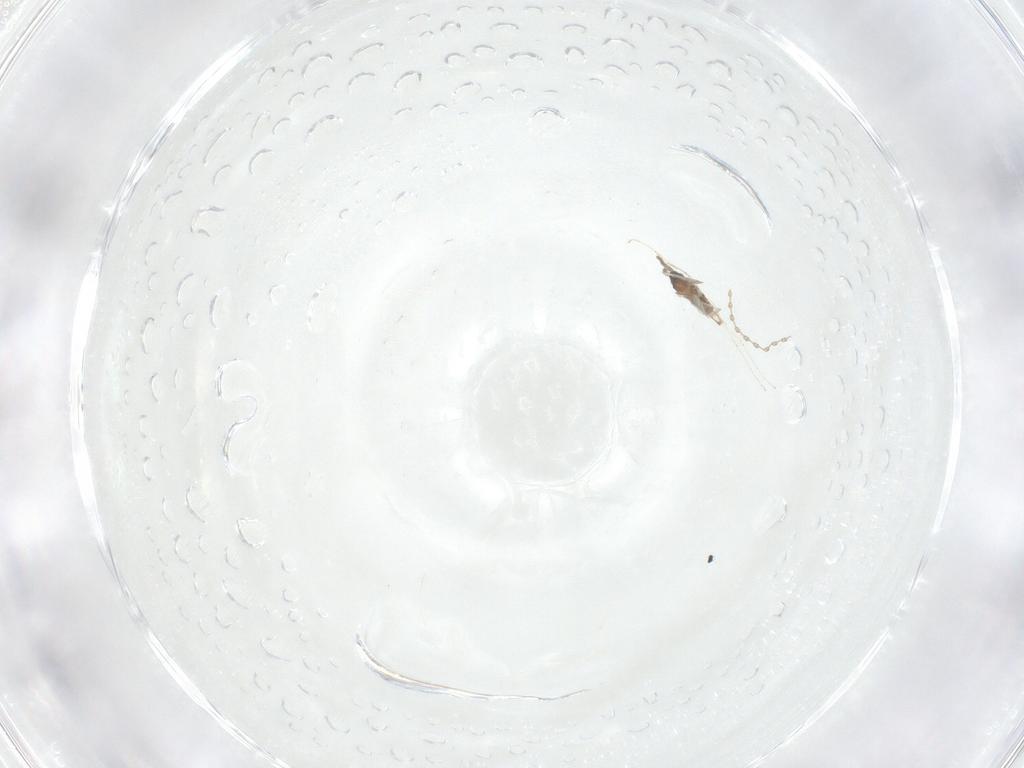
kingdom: Animalia
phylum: Arthropoda
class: Insecta
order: Diptera
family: Cecidomyiidae
